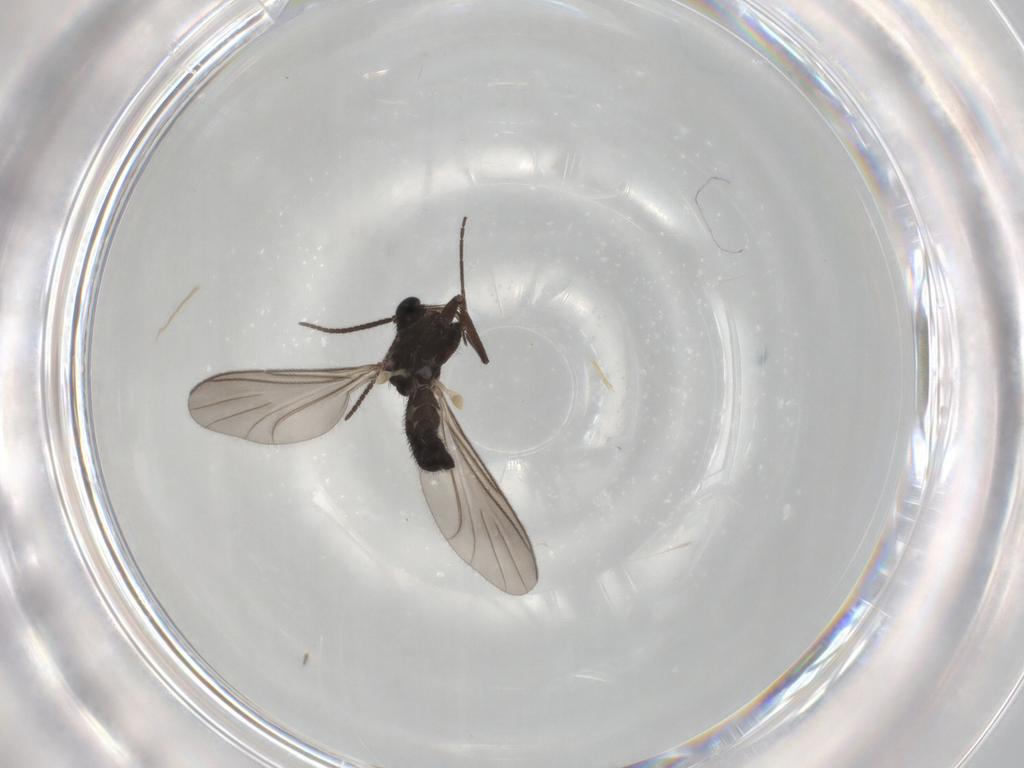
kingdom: Animalia
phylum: Arthropoda
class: Insecta
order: Diptera
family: Keroplatidae
